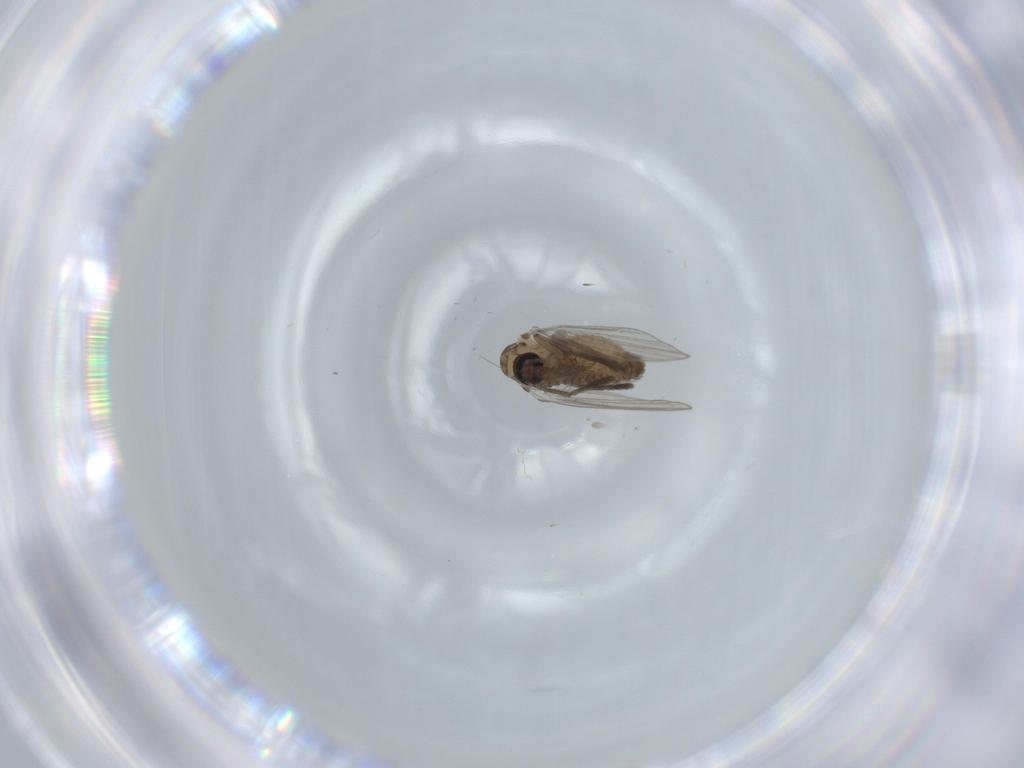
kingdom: Animalia
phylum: Arthropoda
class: Insecta
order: Diptera
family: Psychodidae
